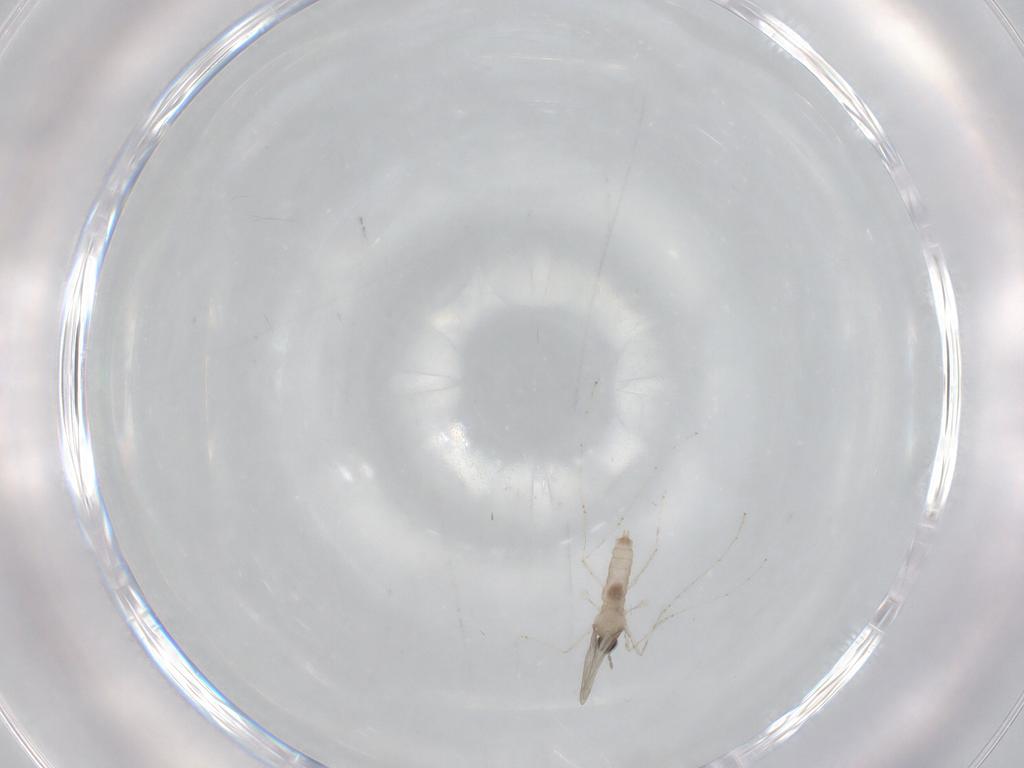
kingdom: Animalia
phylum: Arthropoda
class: Insecta
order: Diptera
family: Cecidomyiidae
